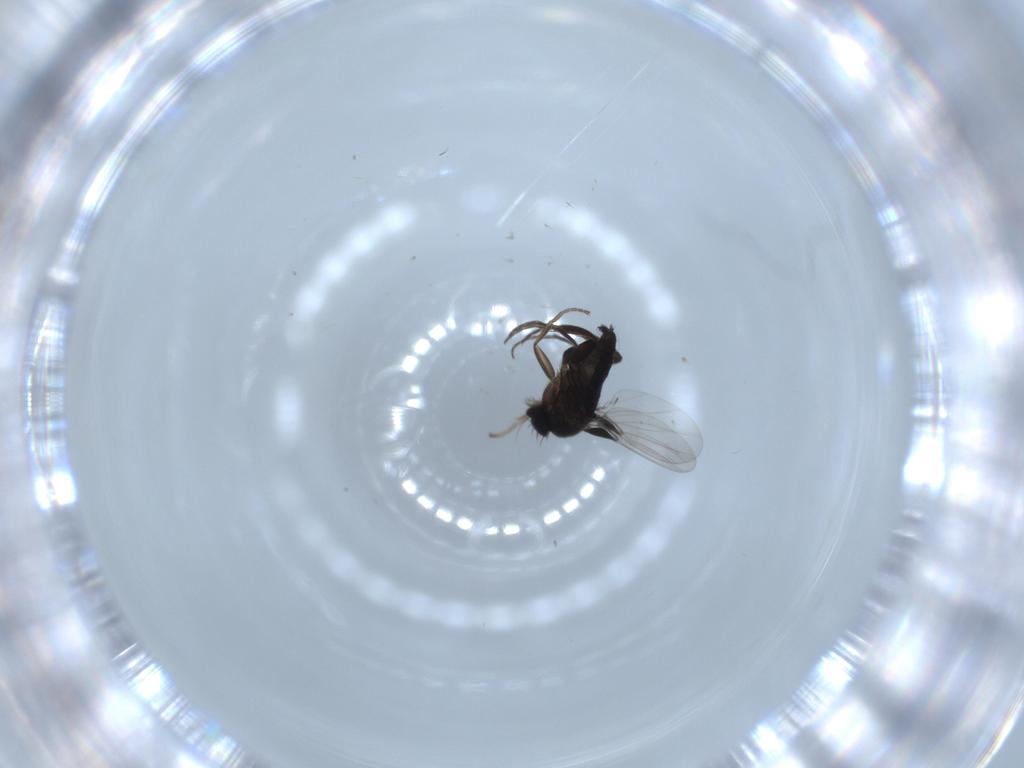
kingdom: Animalia
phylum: Arthropoda
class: Insecta
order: Diptera
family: Phoridae
